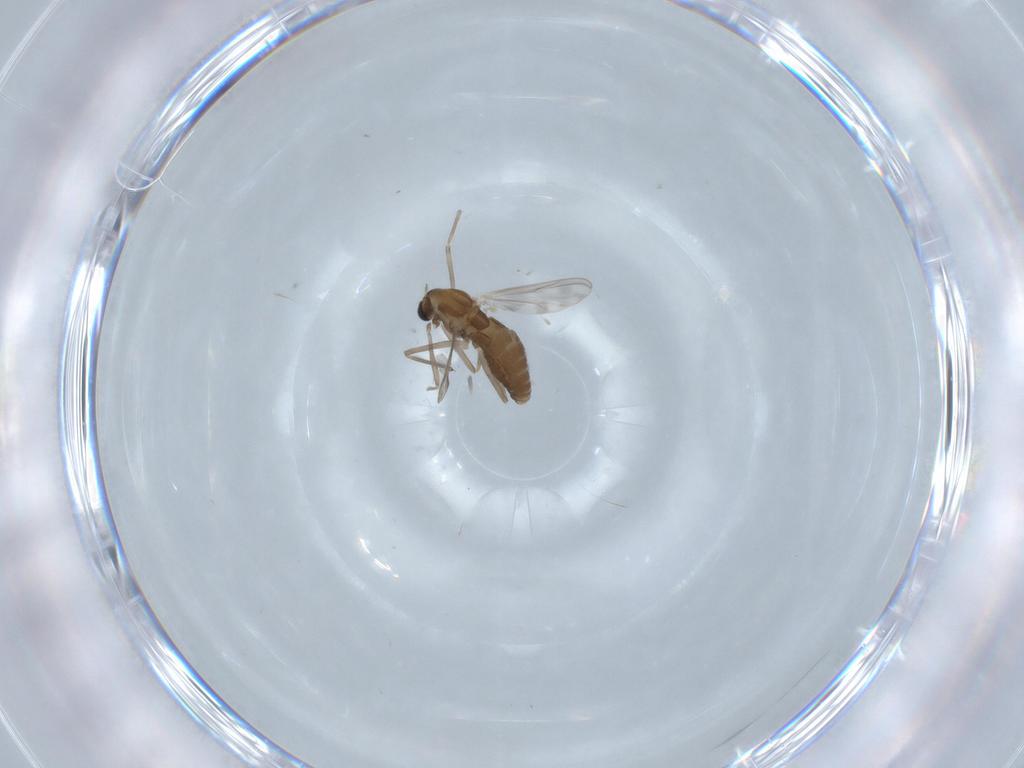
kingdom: Animalia
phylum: Arthropoda
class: Insecta
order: Diptera
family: Chironomidae
